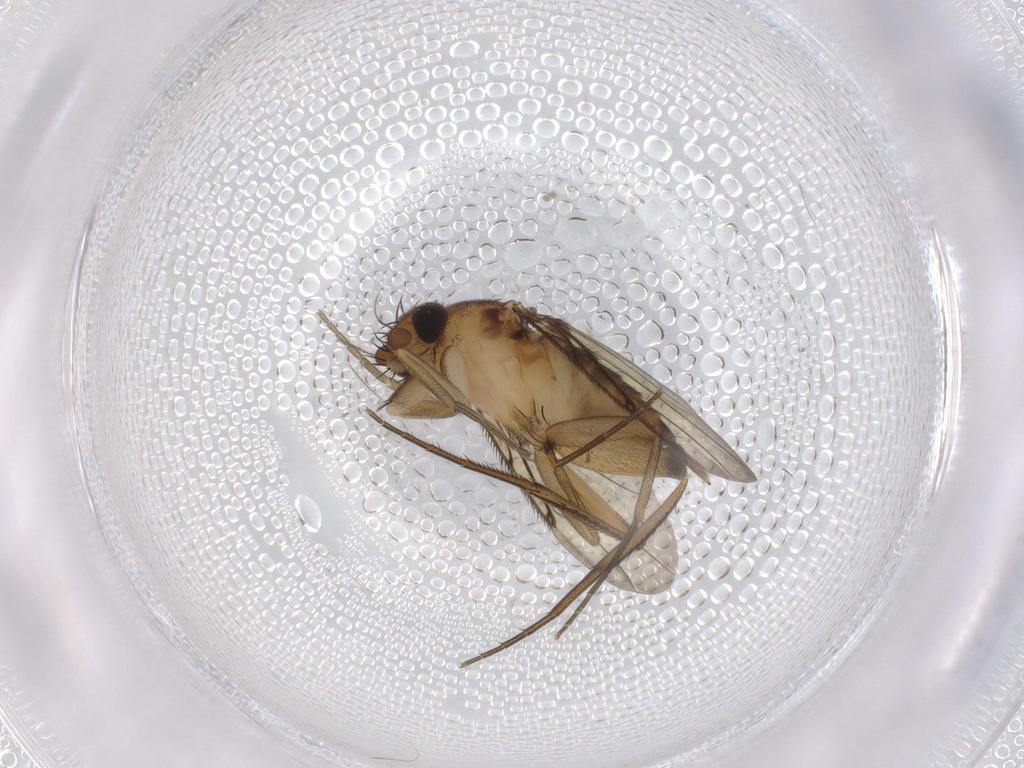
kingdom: Animalia
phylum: Arthropoda
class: Insecta
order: Diptera
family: Phoridae
